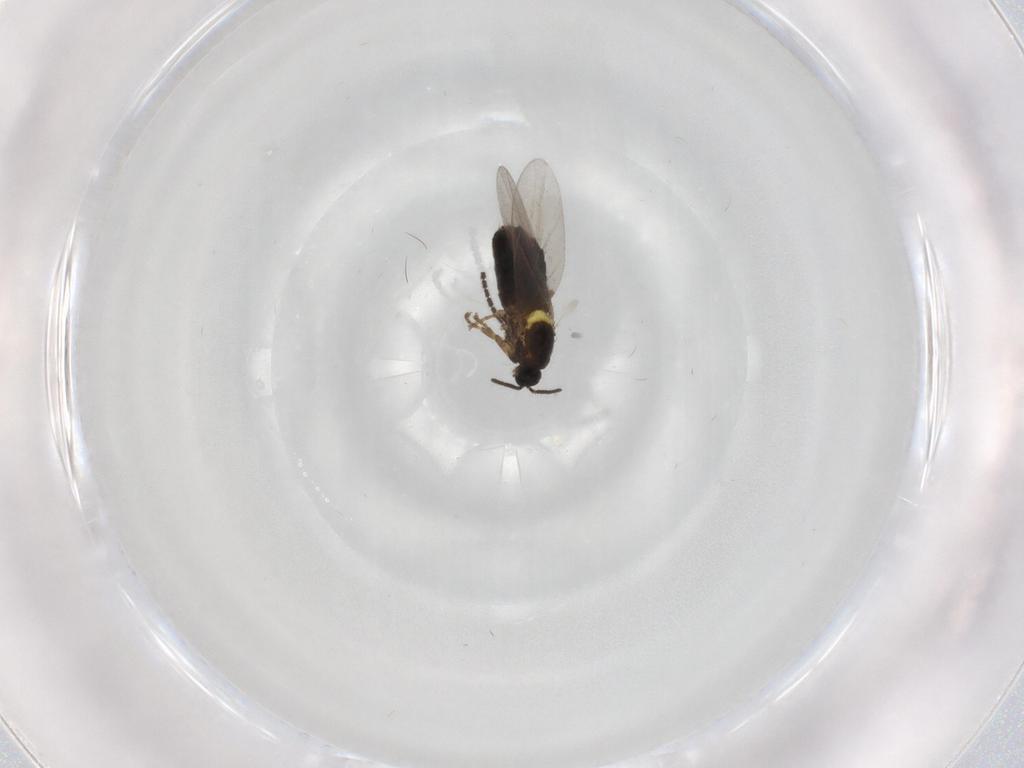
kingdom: Animalia
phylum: Arthropoda
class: Insecta
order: Diptera
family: Scatopsidae
